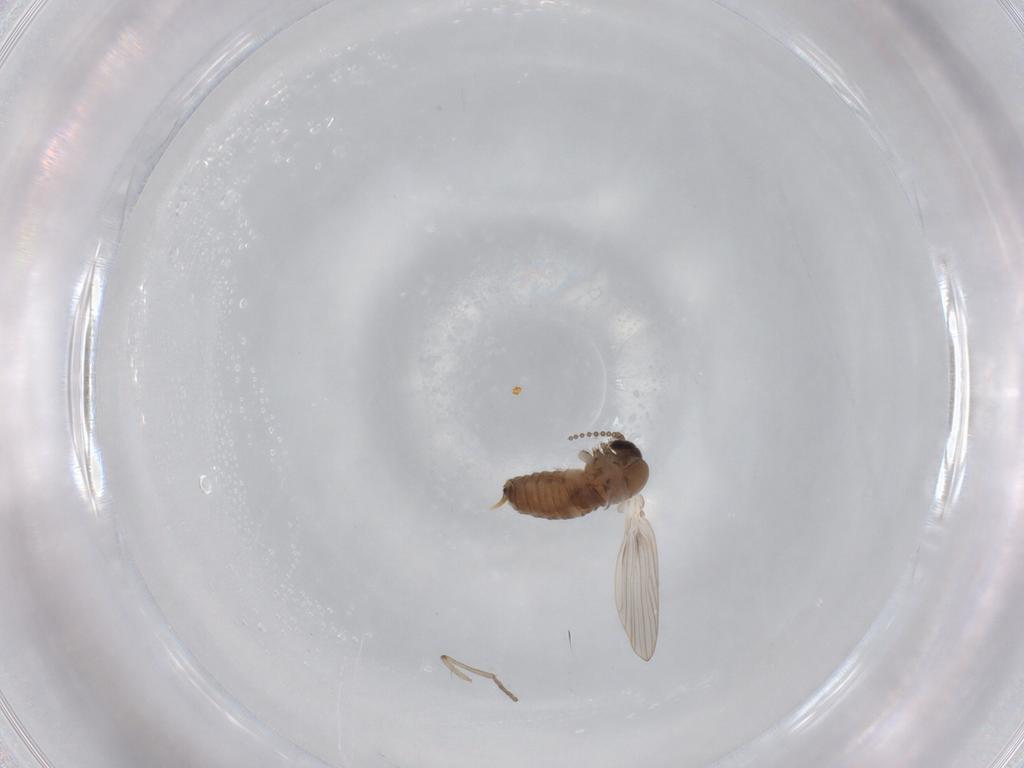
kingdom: Animalia
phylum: Arthropoda
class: Insecta
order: Diptera
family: Psychodidae
